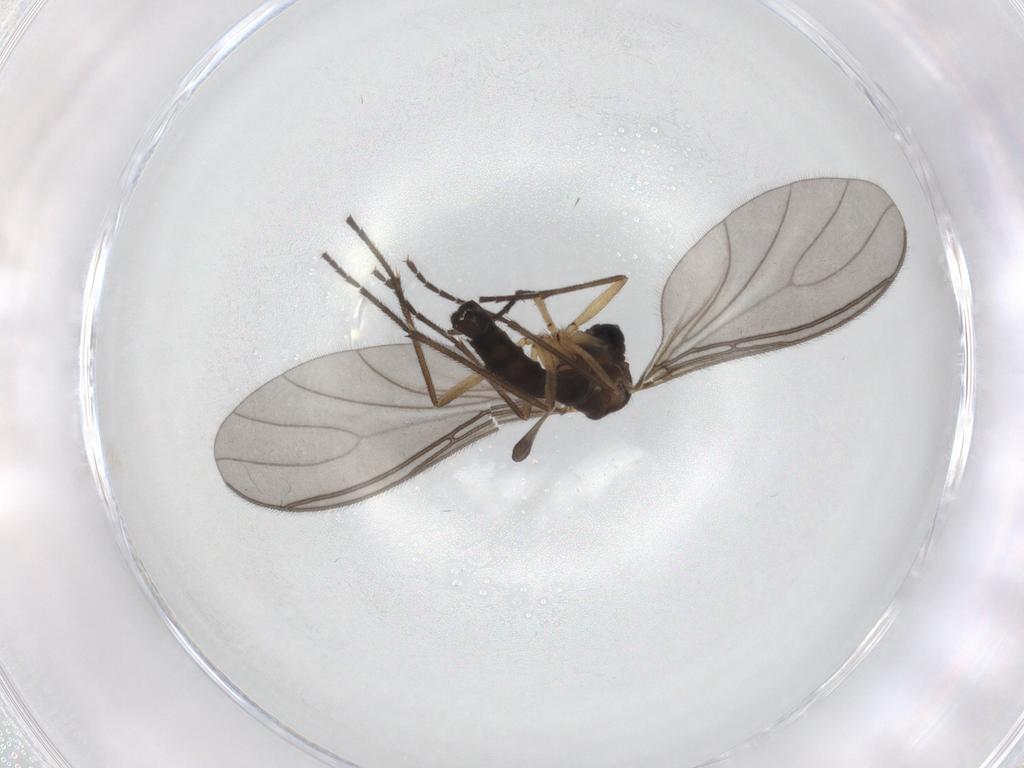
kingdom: Animalia
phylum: Arthropoda
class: Insecta
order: Diptera
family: Sciaridae
